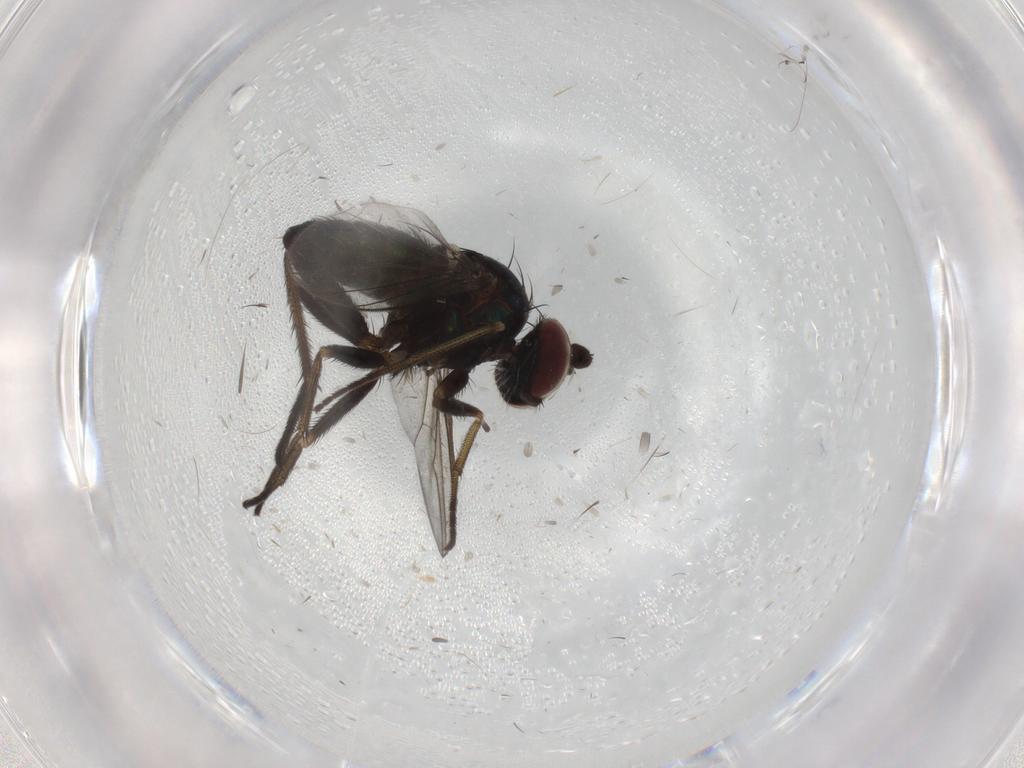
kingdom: Animalia
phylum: Arthropoda
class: Insecta
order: Diptera
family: Dolichopodidae
